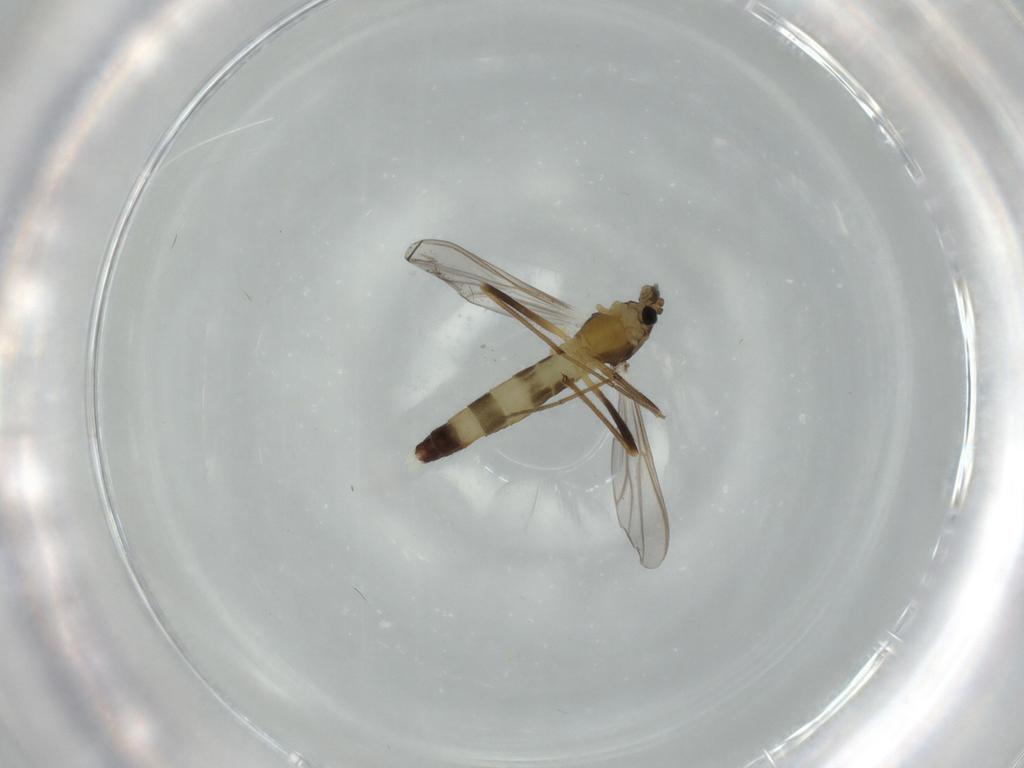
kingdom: Animalia
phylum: Arthropoda
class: Insecta
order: Diptera
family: Chironomidae
